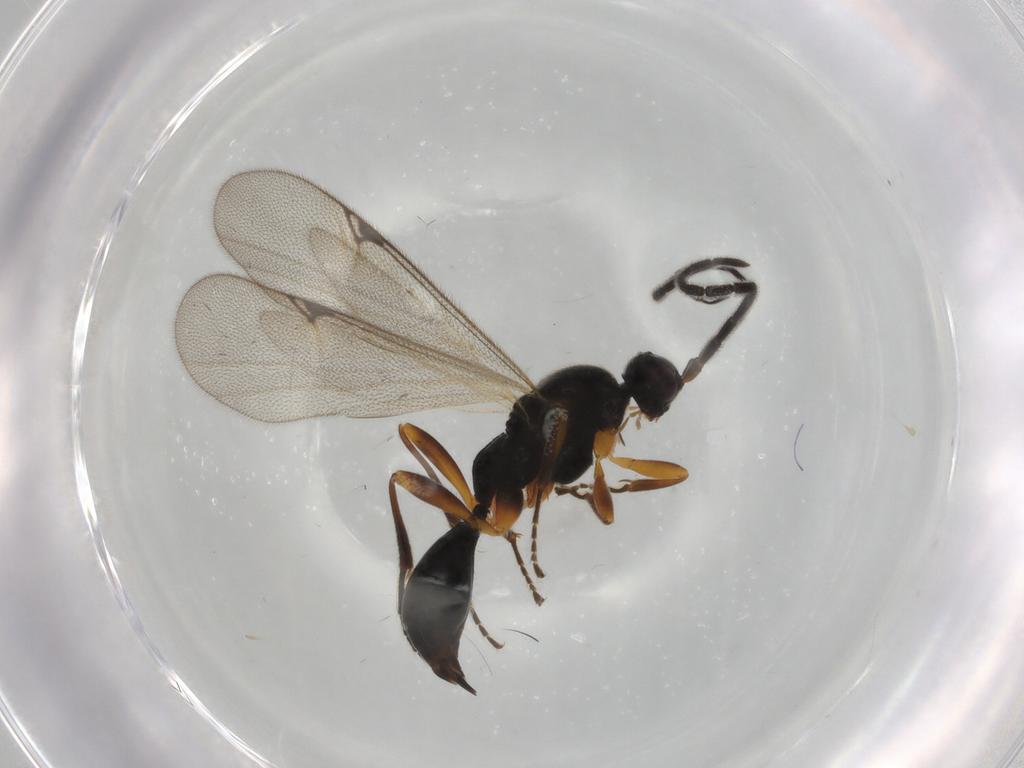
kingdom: Animalia
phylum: Arthropoda
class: Insecta
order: Hymenoptera
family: Proctotrupidae
